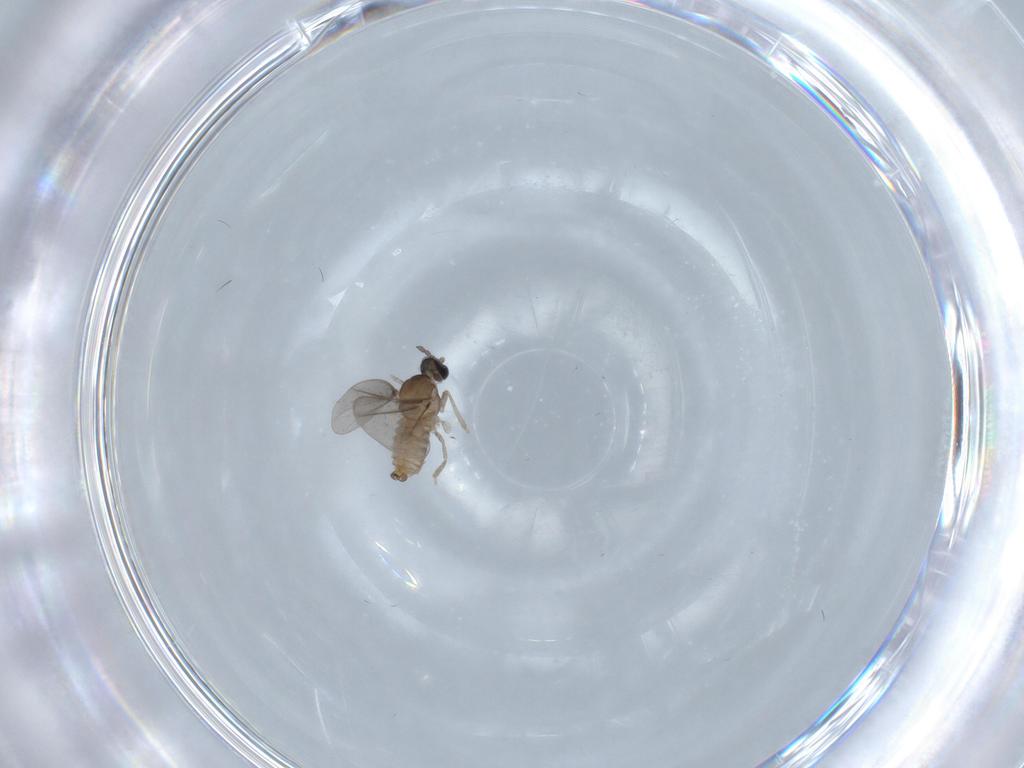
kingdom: Animalia
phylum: Arthropoda
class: Insecta
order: Diptera
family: Cecidomyiidae
